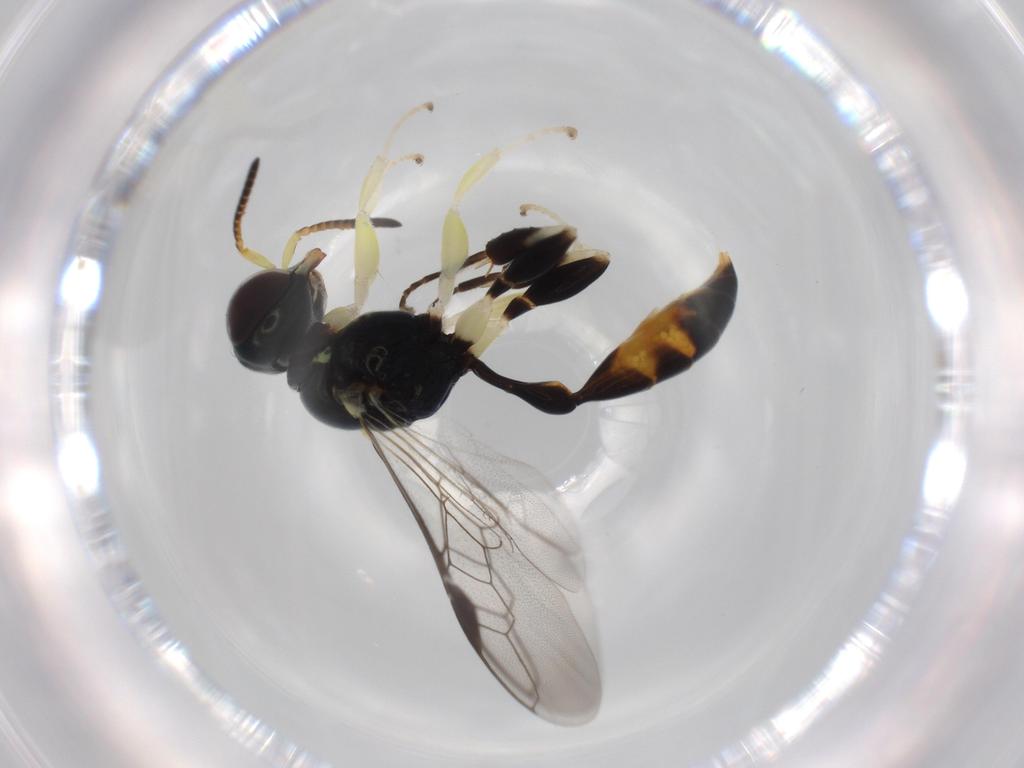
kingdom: Animalia
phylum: Arthropoda
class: Insecta
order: Hymenoptera
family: Crabronidae
